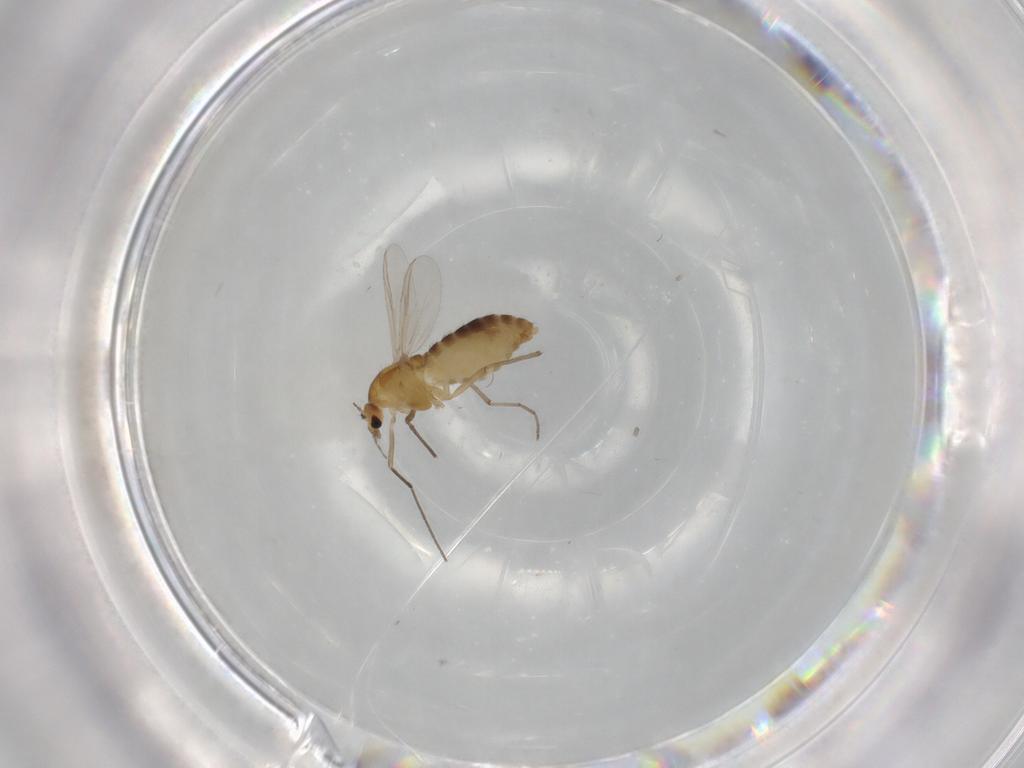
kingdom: Animalia
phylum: Arthropoda
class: Insecta
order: Diptera
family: Chironomidae
